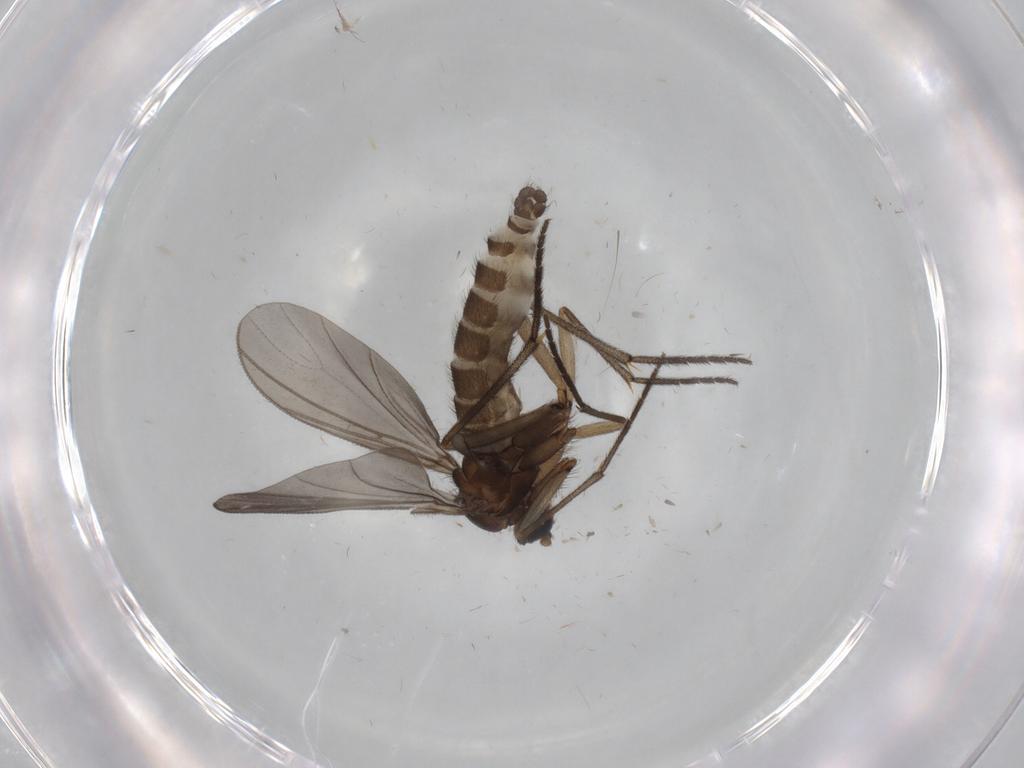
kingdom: Animalia
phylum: Arthropoda
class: Insecta
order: Diptera
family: Sciaridae
